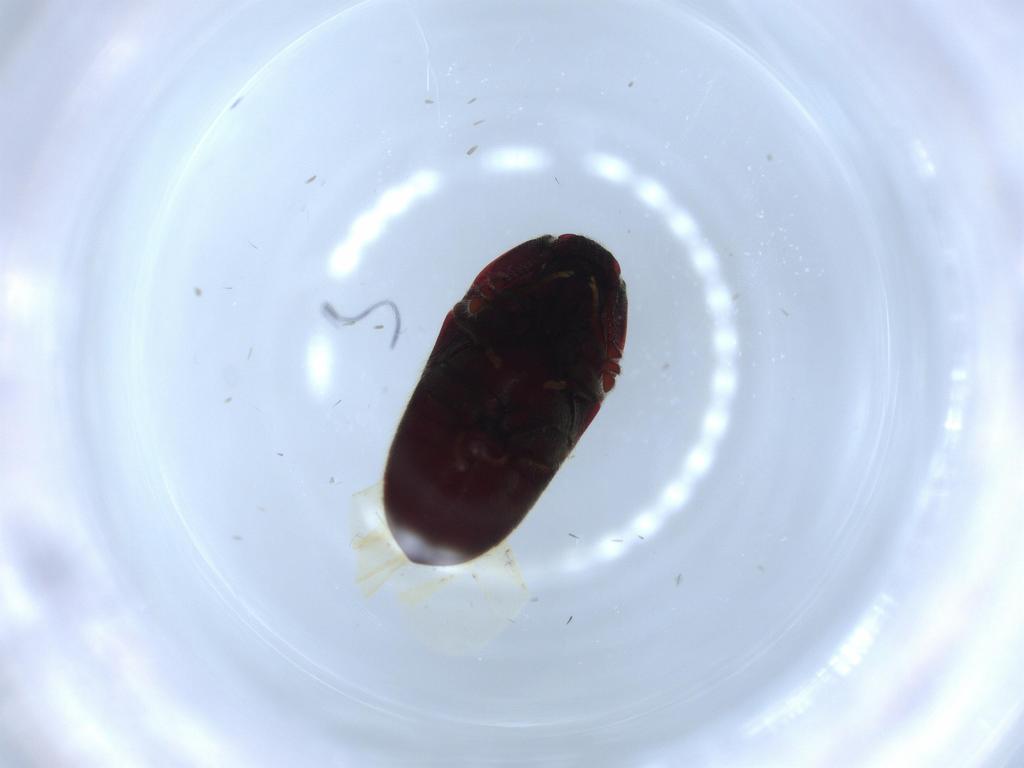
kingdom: Animalia
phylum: Arthropoda
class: Insecta
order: Coleoptera
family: Throscidae
